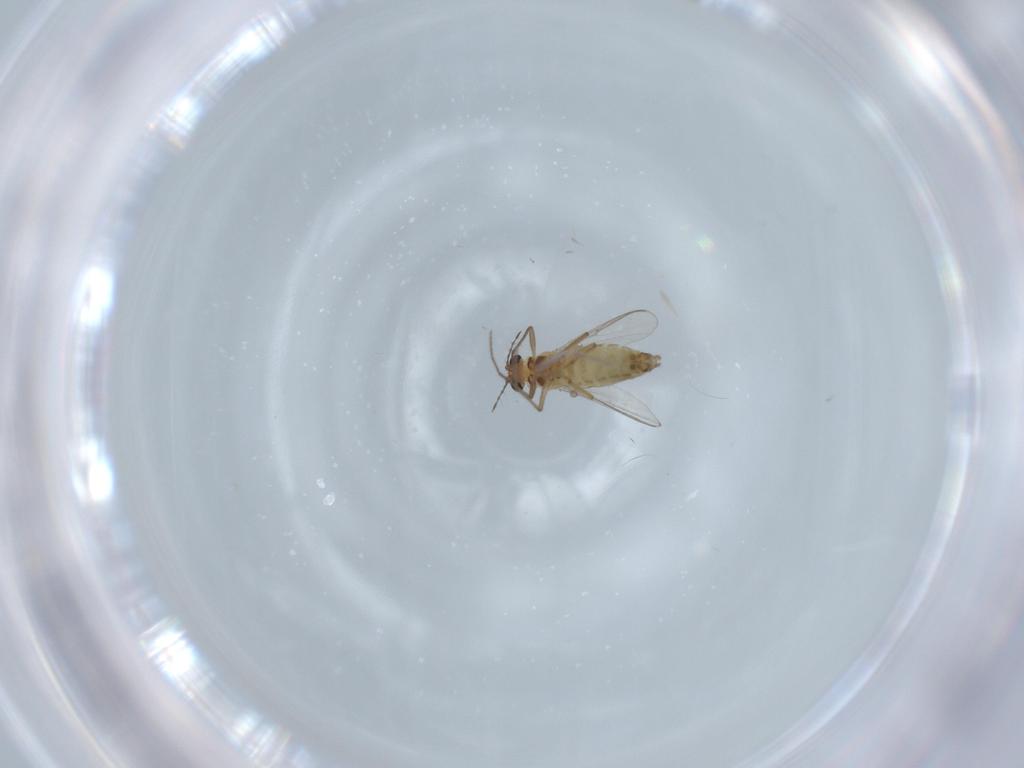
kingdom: Animalia
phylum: Arthropoda
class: Insecta
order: Diptera
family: Chironomidae
